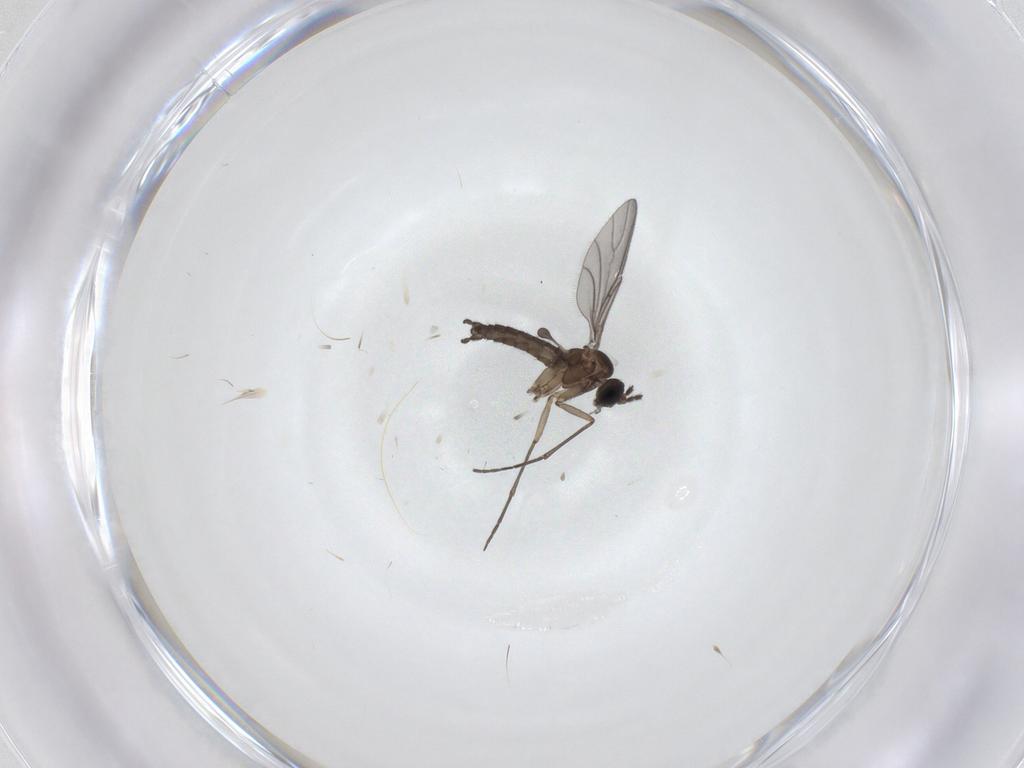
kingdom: Animalia
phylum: Arthropoda
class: Insecta
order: Diptera
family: Sciaridae
